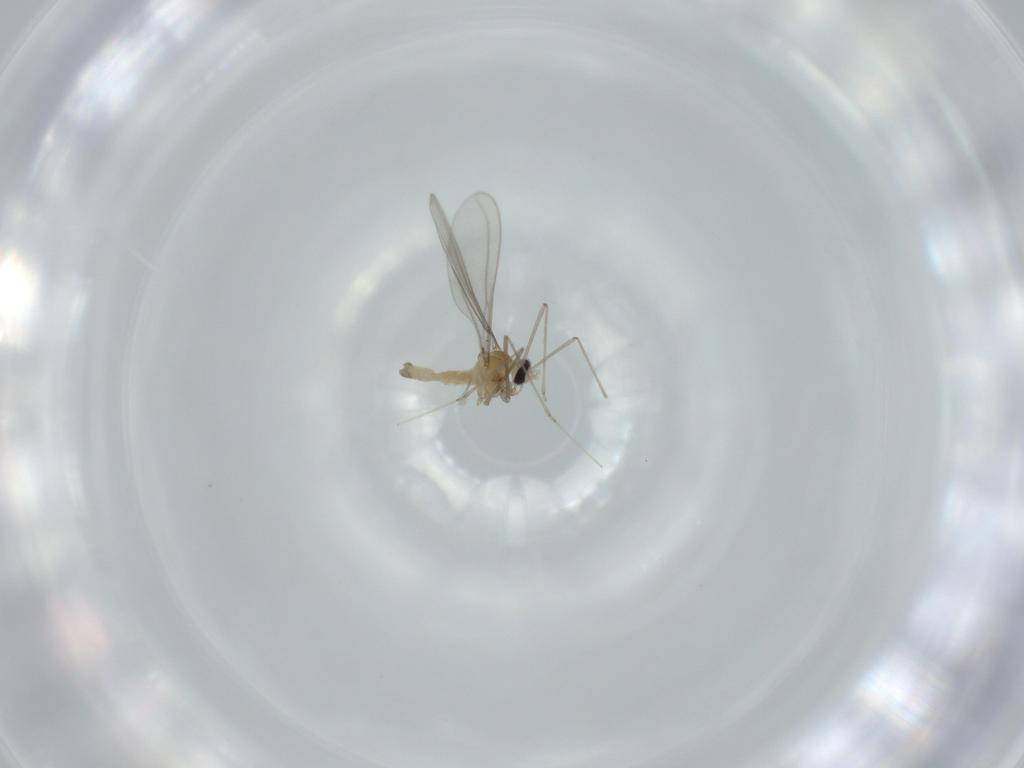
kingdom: Animalia
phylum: Arthropoda
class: Insecta
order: Diptera
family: Cecidomyiidae
